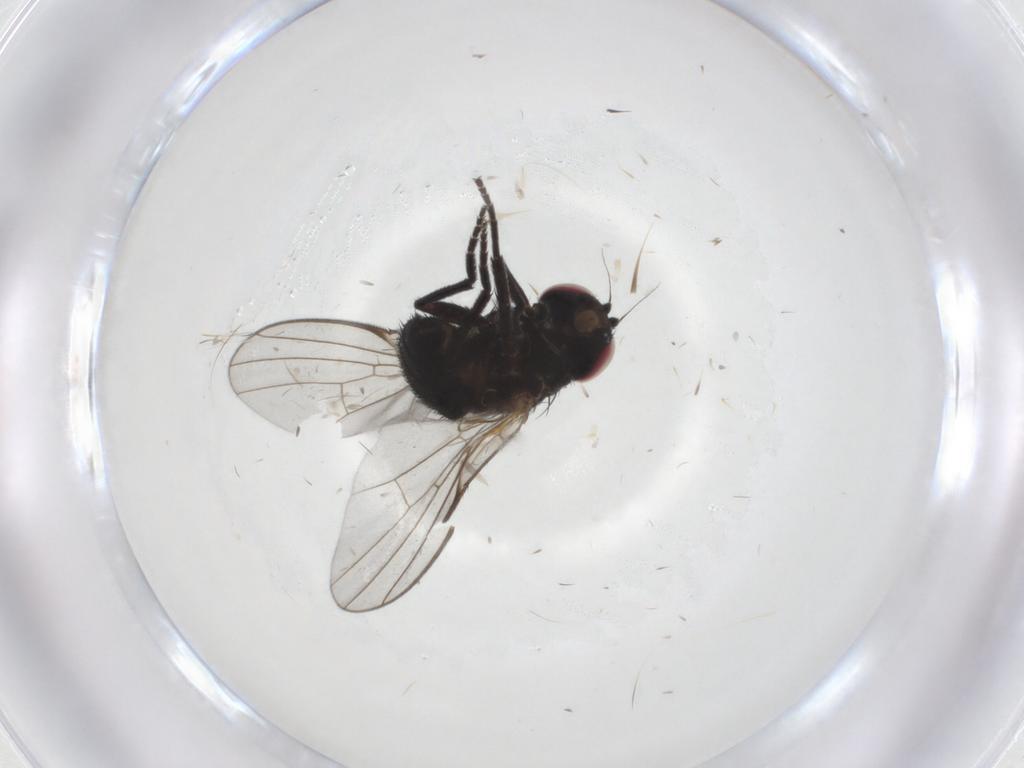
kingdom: Animalia
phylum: Arthropoda
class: Insecta
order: Diptera
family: Agromyzidae
